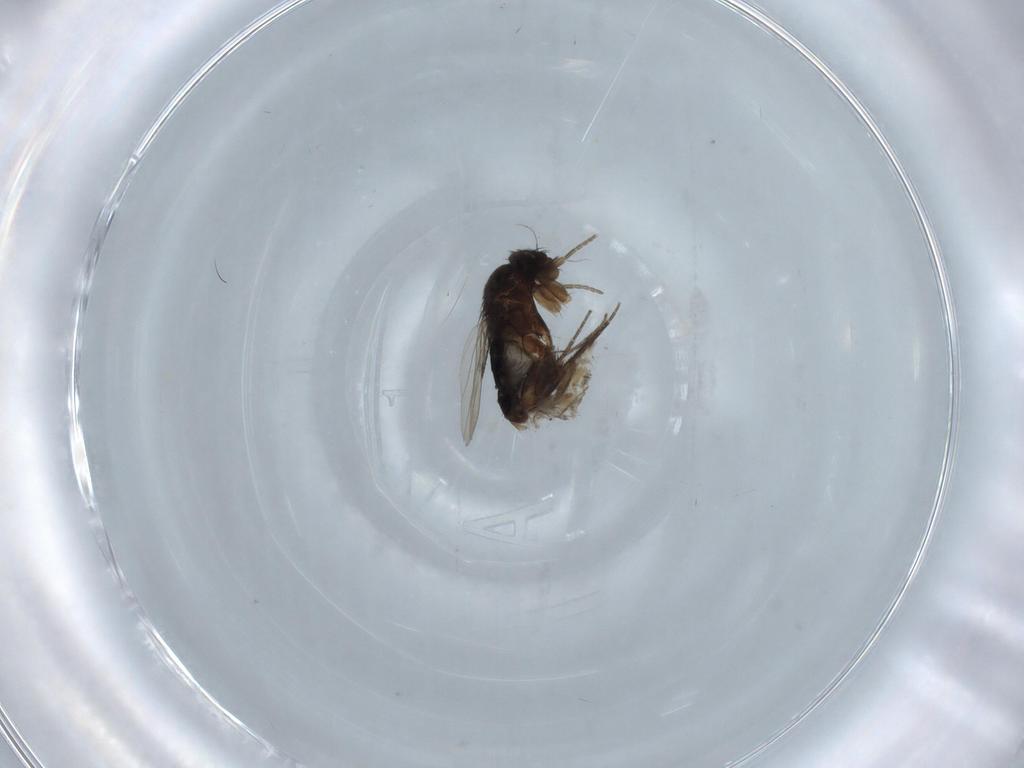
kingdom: Animalia
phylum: Arthropoda
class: Insecta
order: Diptera
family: Phoridae
